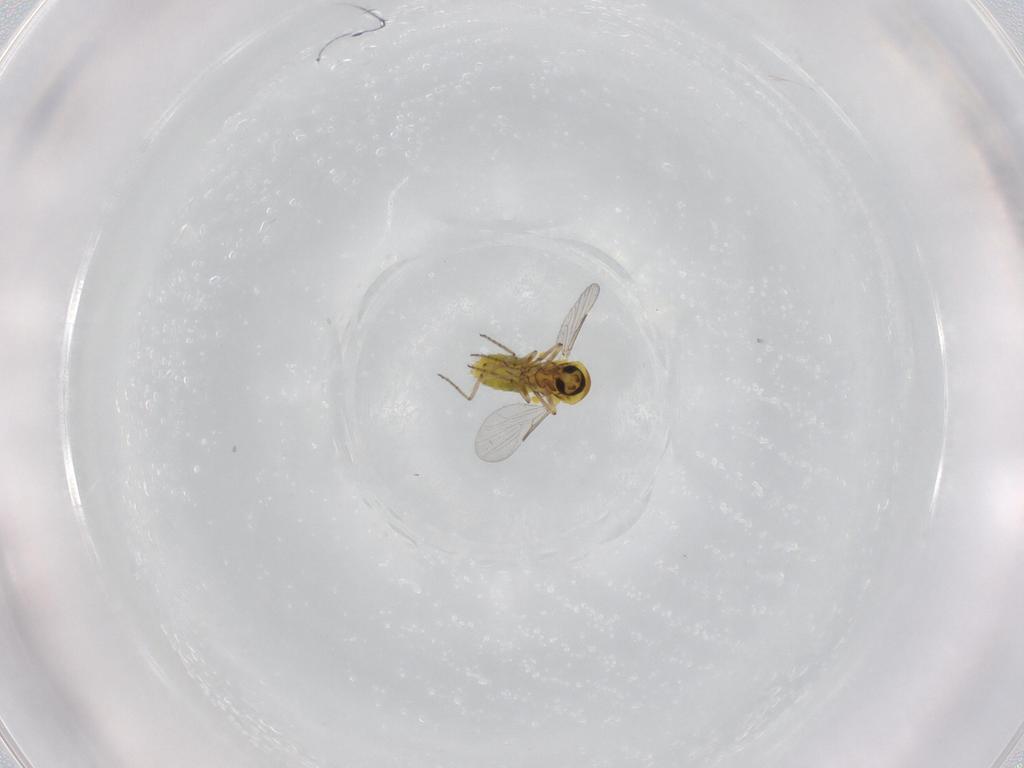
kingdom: Animalia
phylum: Arthropoda
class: Insecta
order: Diptera
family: Ceratopogonidae
